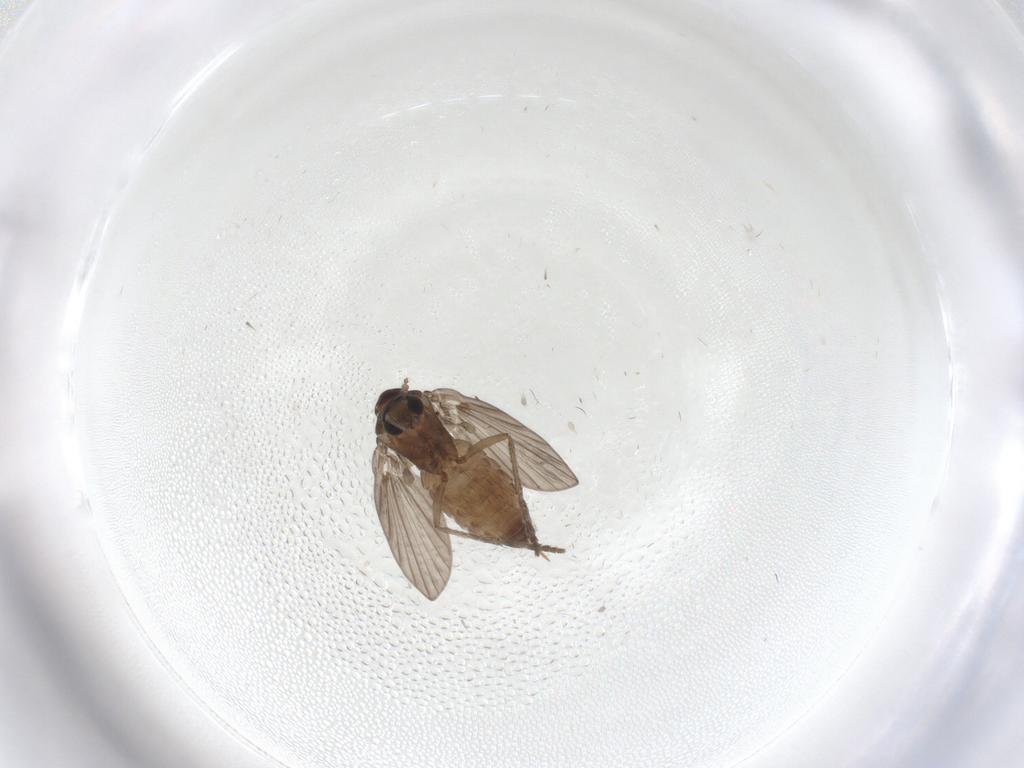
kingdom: Animalia
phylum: Arthropoda
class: Insecta
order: Diptera
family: Psychodidae
